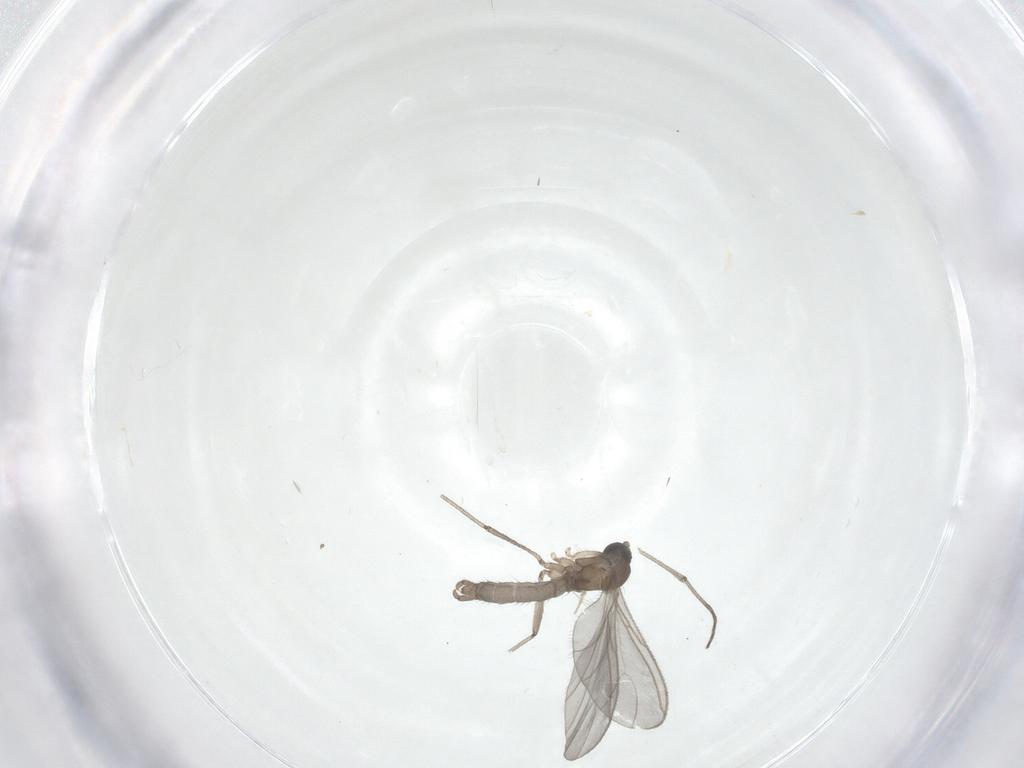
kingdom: Animalia
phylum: Arthropoda
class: Insecta
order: Diptera
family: Sciaridae
